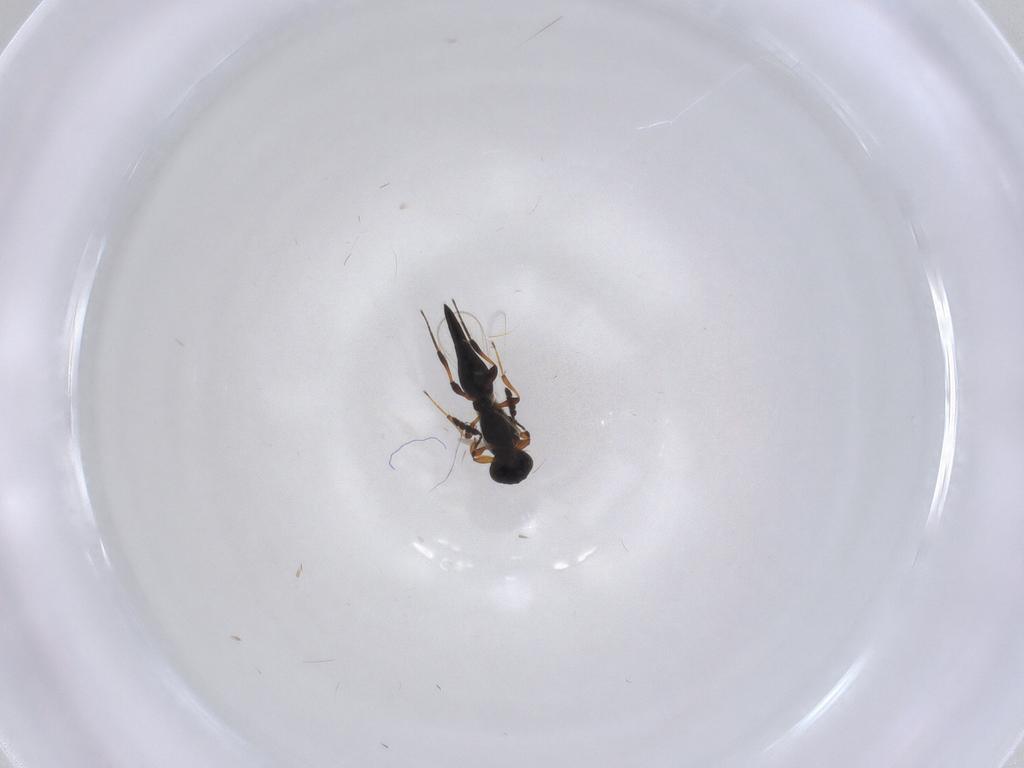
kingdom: Animalia
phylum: Arthropoda
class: Insecta
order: Hymenoptera
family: Platygastridae
